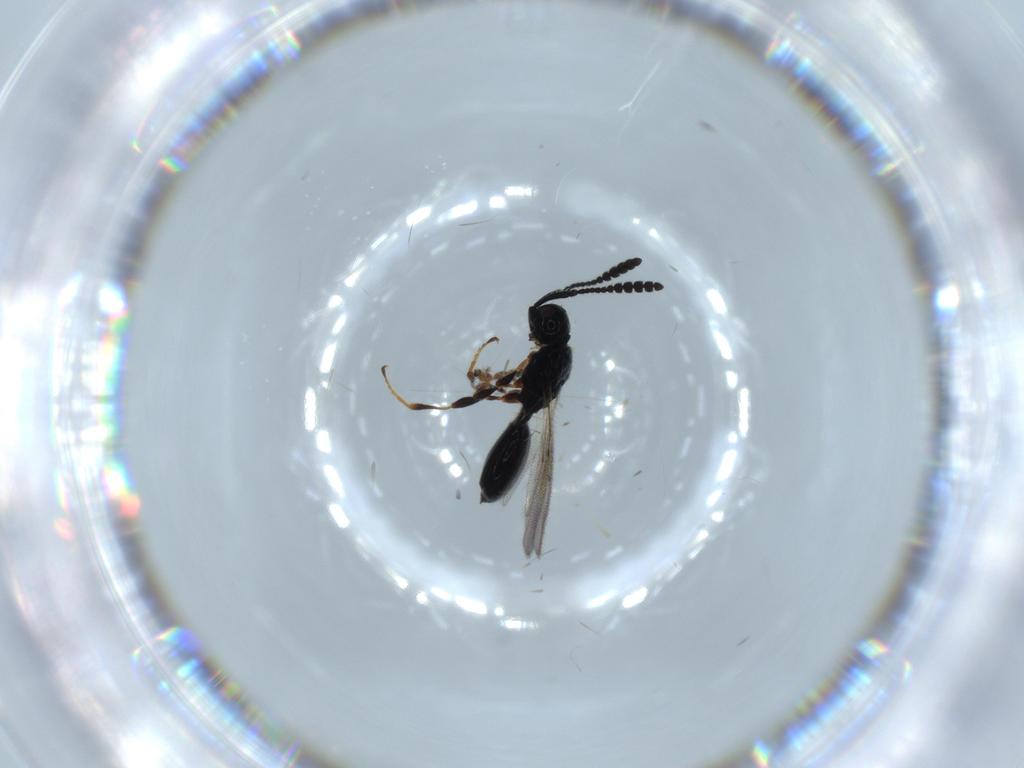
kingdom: Animalia
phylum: Arthropoda
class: Insecta
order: Hymenoptera
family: Diapriidae
